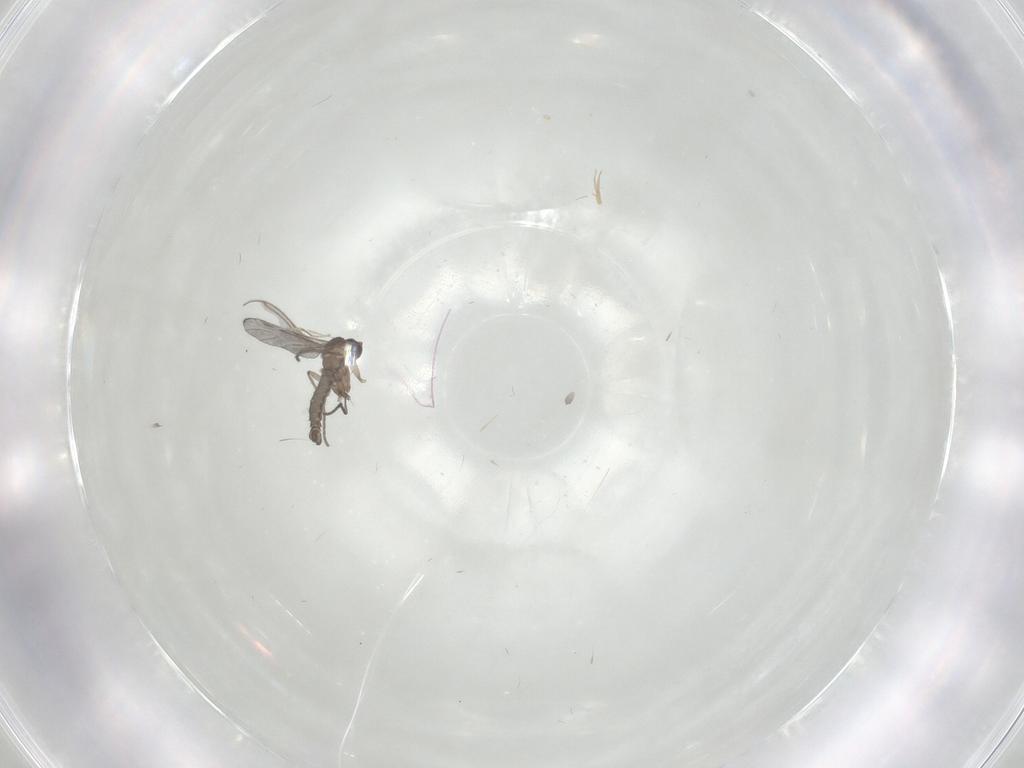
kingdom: Animalia
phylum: Arthropoda
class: Insecta
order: Diptera
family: Sciaridae
